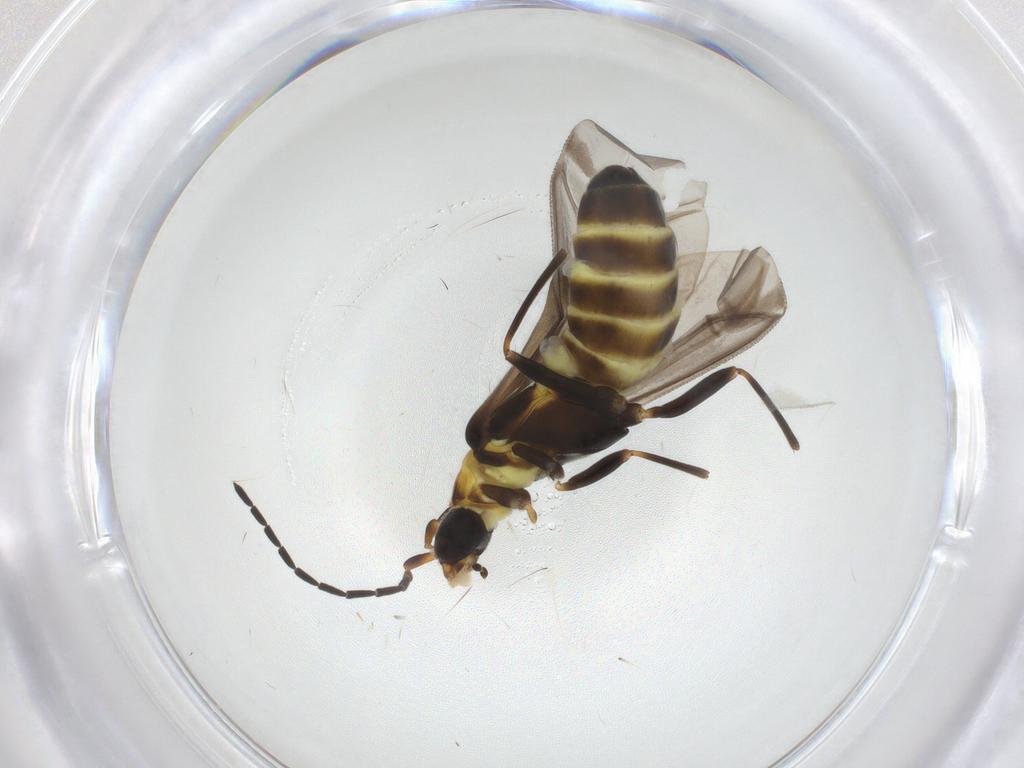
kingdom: Animalia
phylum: Arthropoda
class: Insecta
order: Coleoptera
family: Cantharidae
